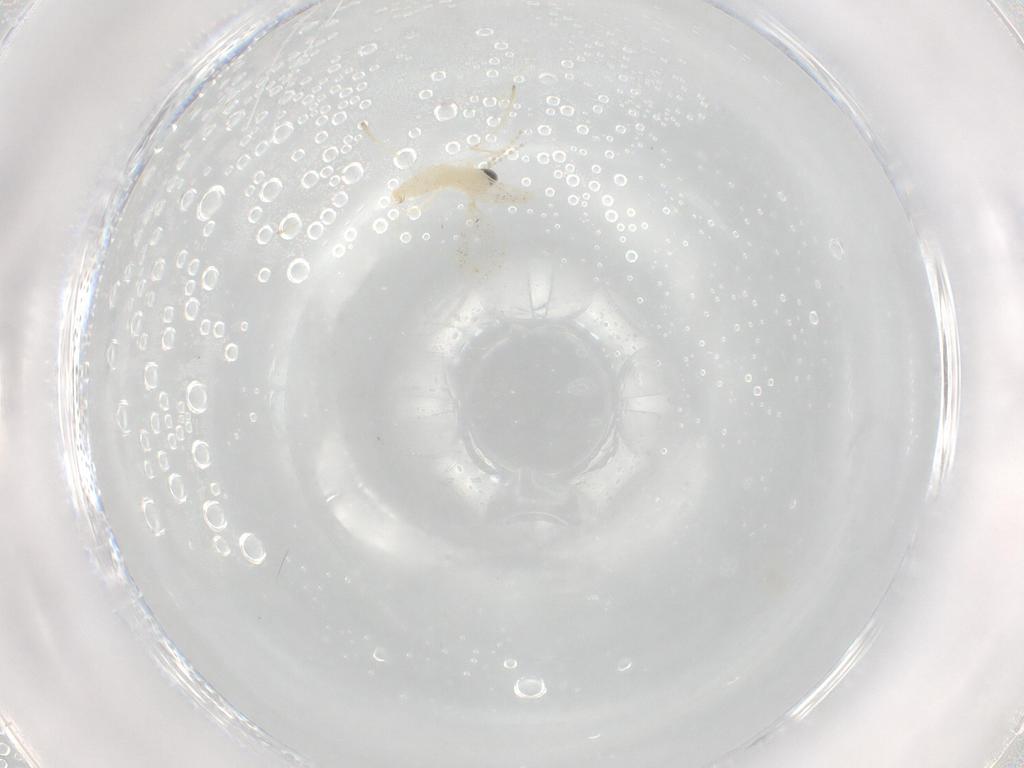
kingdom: Animalia
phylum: Arthropoda
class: Insecta
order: Diptera
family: Cecidomyiidae
